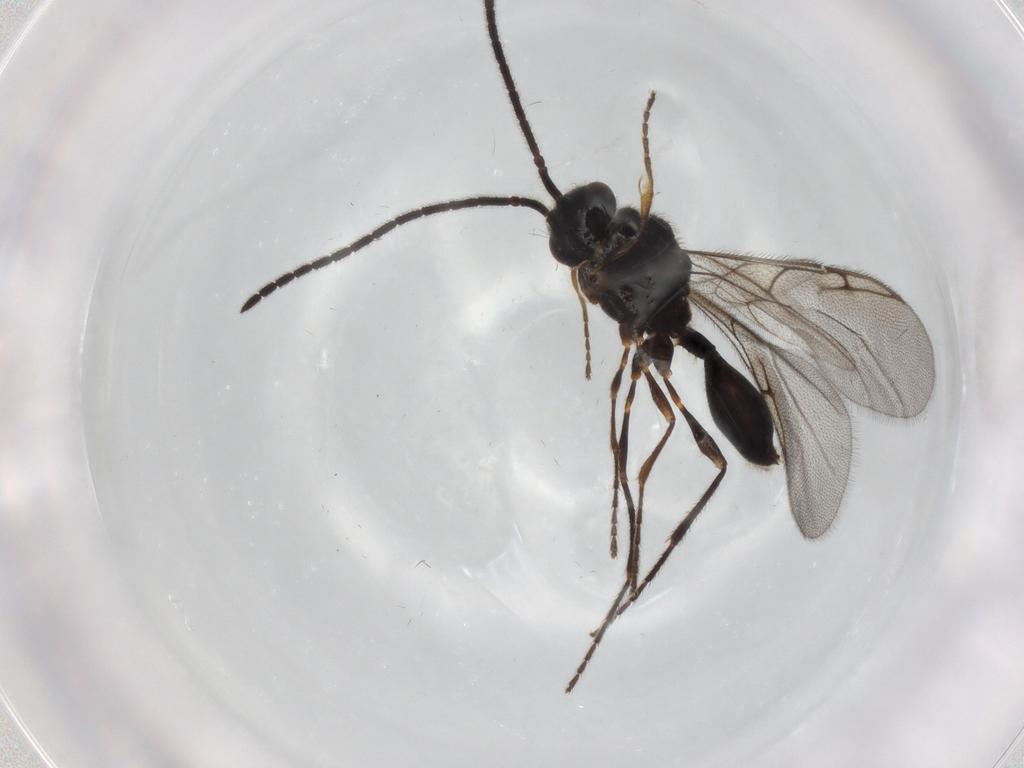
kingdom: Animalia
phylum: Arthropoda
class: Insecta
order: Hymenoptera
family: Diapriidae
